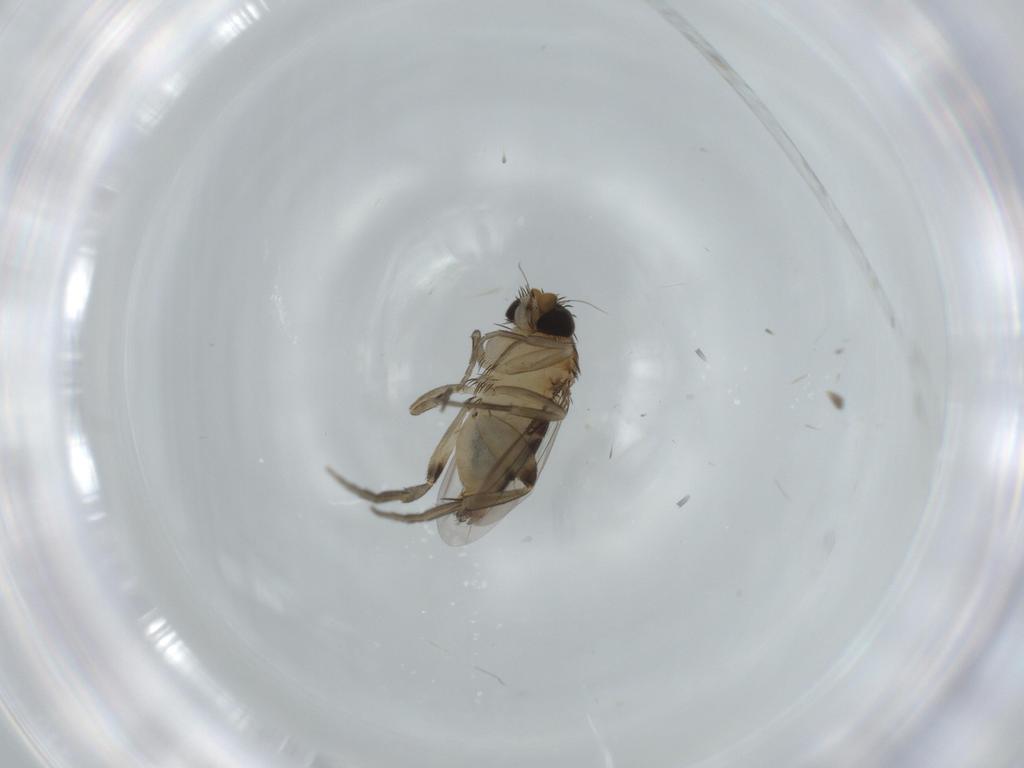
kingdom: Animalia
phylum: Arthropoda
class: Insecta
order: Diptera
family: Phoridae
